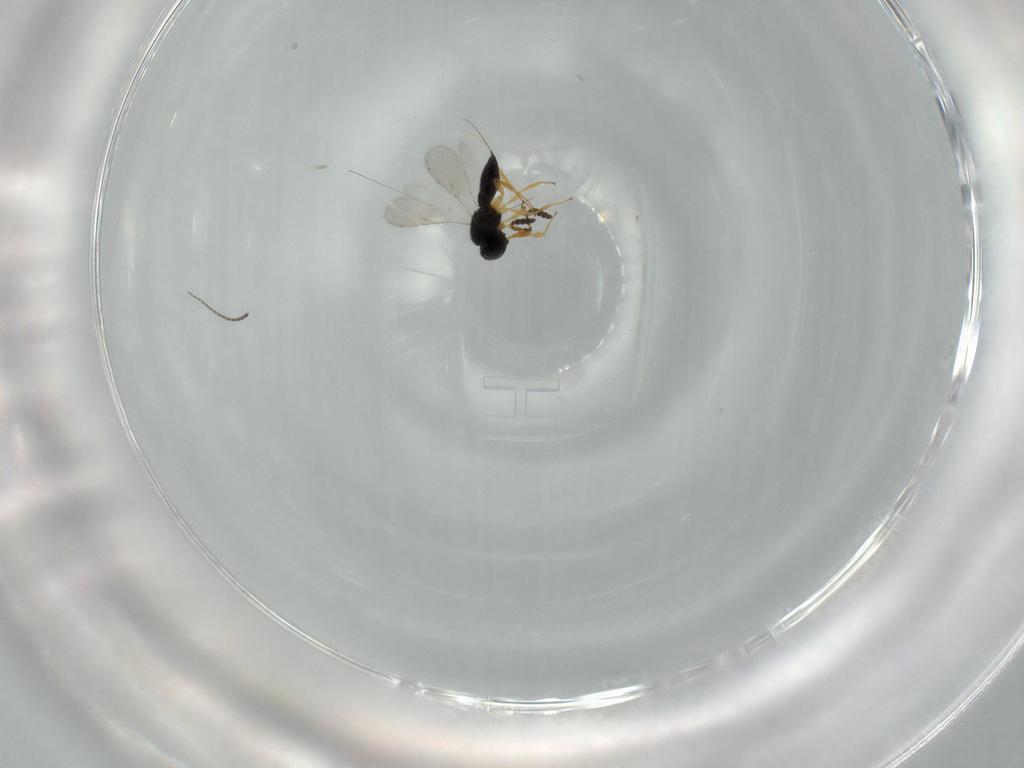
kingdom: Animalia
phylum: Arthropoda
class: Insecta
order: Hymenoptera
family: Scelionidae
